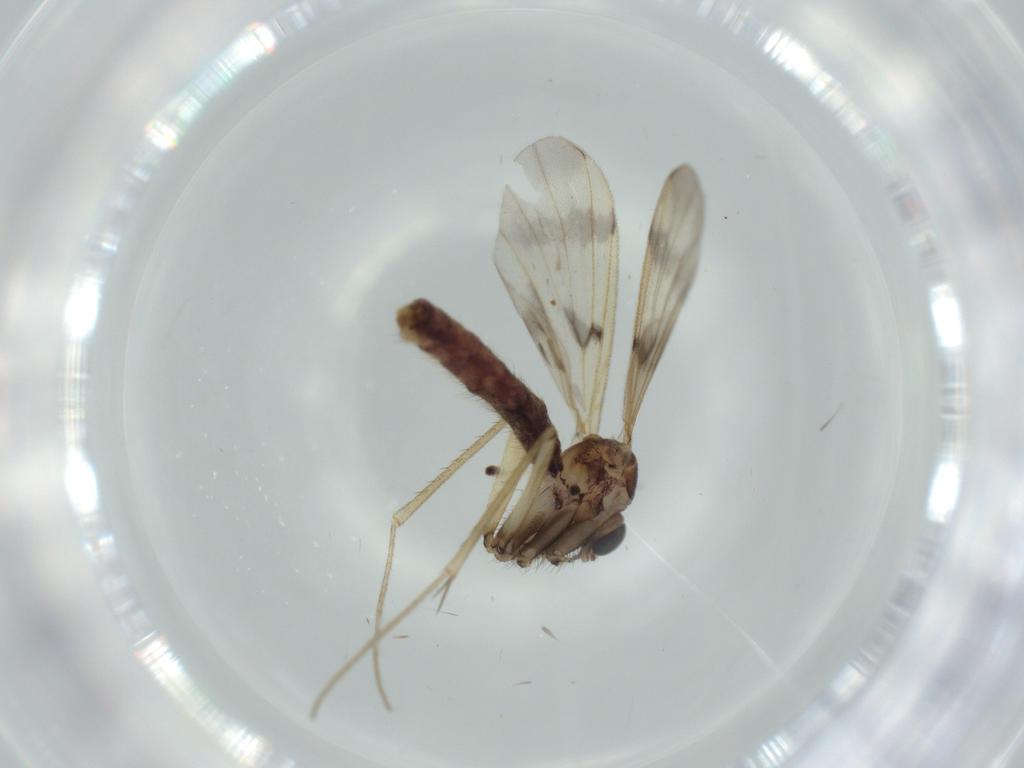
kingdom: Animalia
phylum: Arthropoda
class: Insecta
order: Diptera
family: Mycetophilidae
